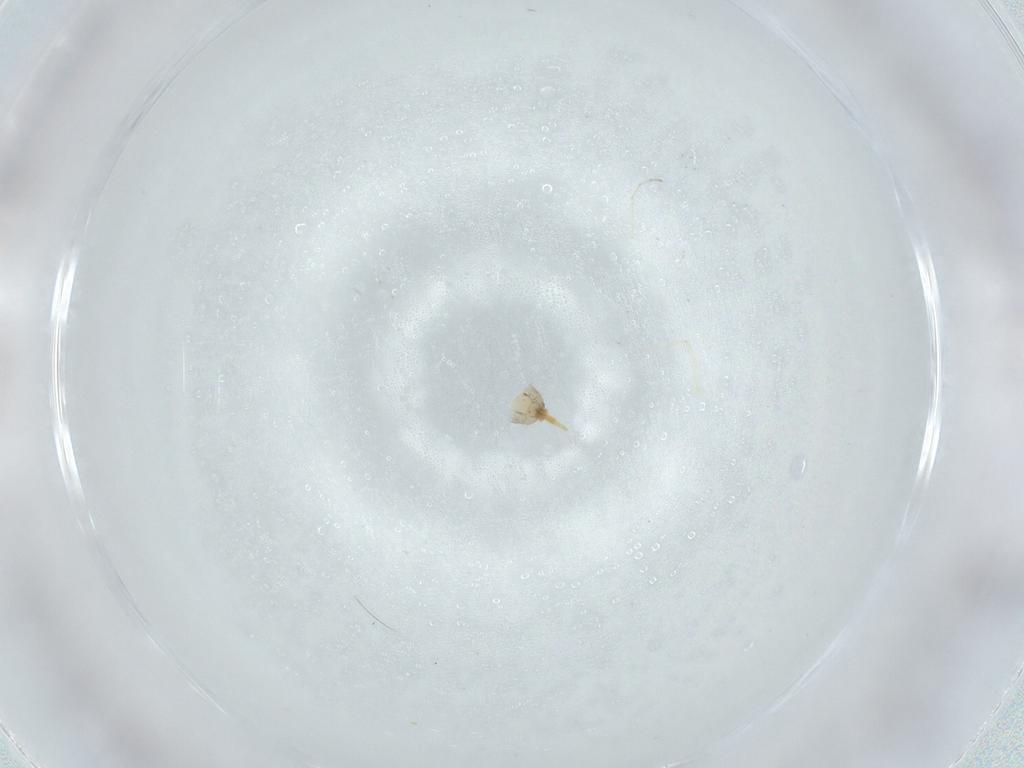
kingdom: Animalia
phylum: Arthropoda
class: Insecta
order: Diptera
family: Cecidomyiidae
